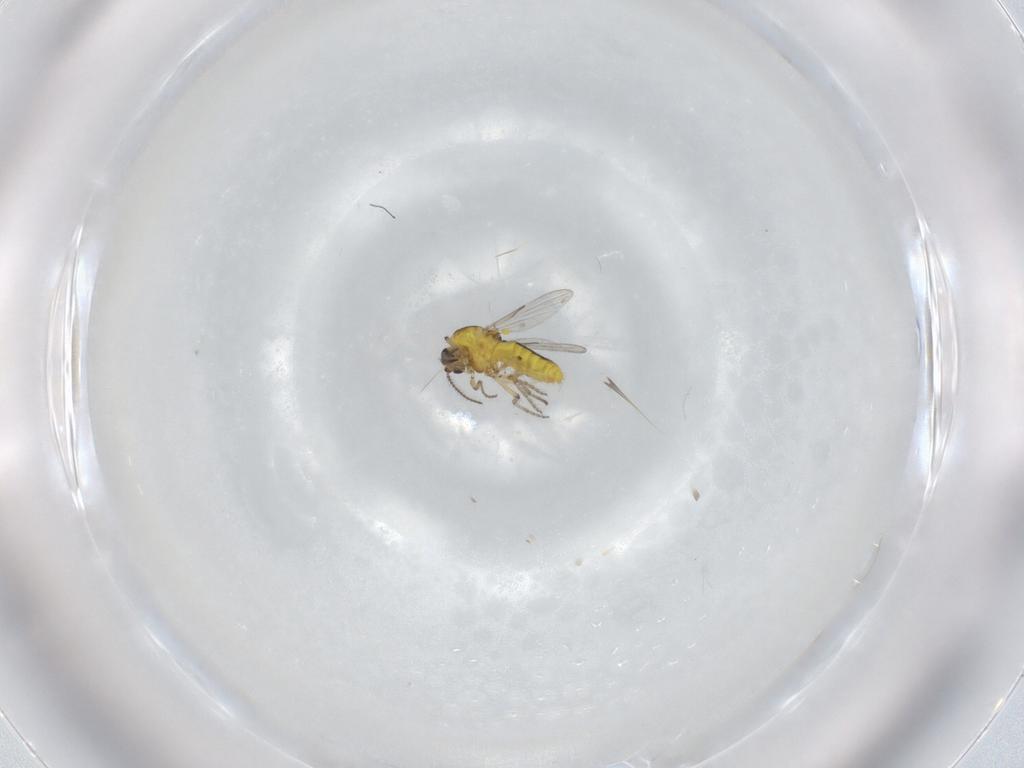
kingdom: Animalia
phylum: Arthropoda
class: Insecta
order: Diptera
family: Ceratopogonidae
